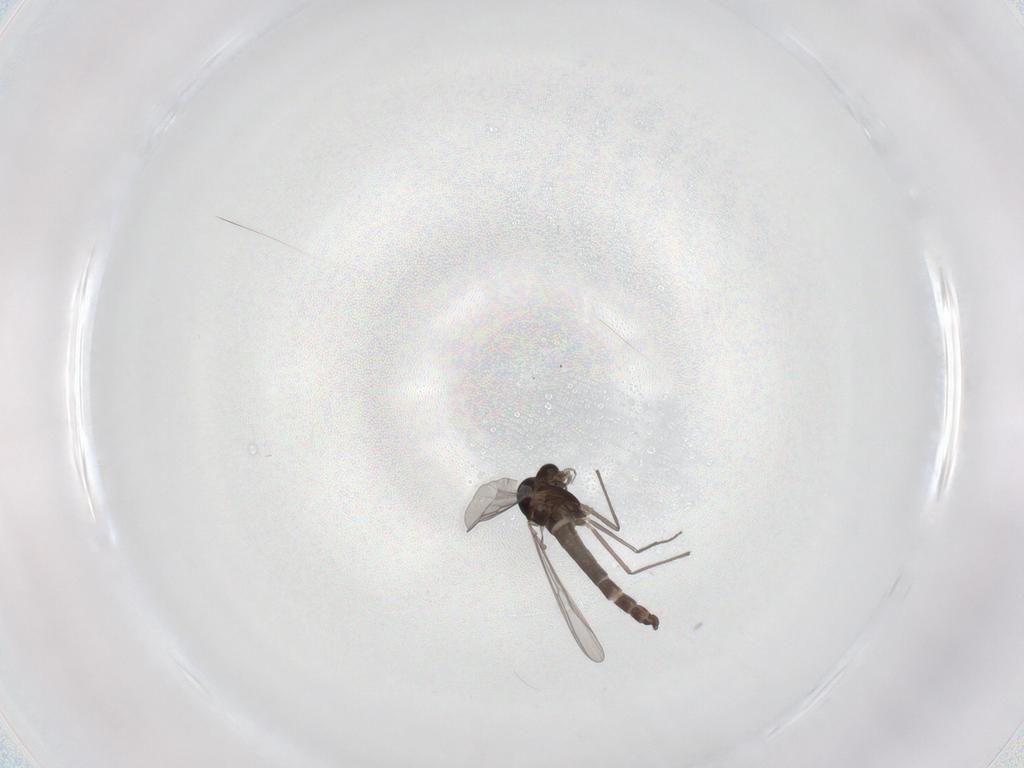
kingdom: Animalia
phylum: Arthropoda
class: Insecta
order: Diptera
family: Chironomidae
